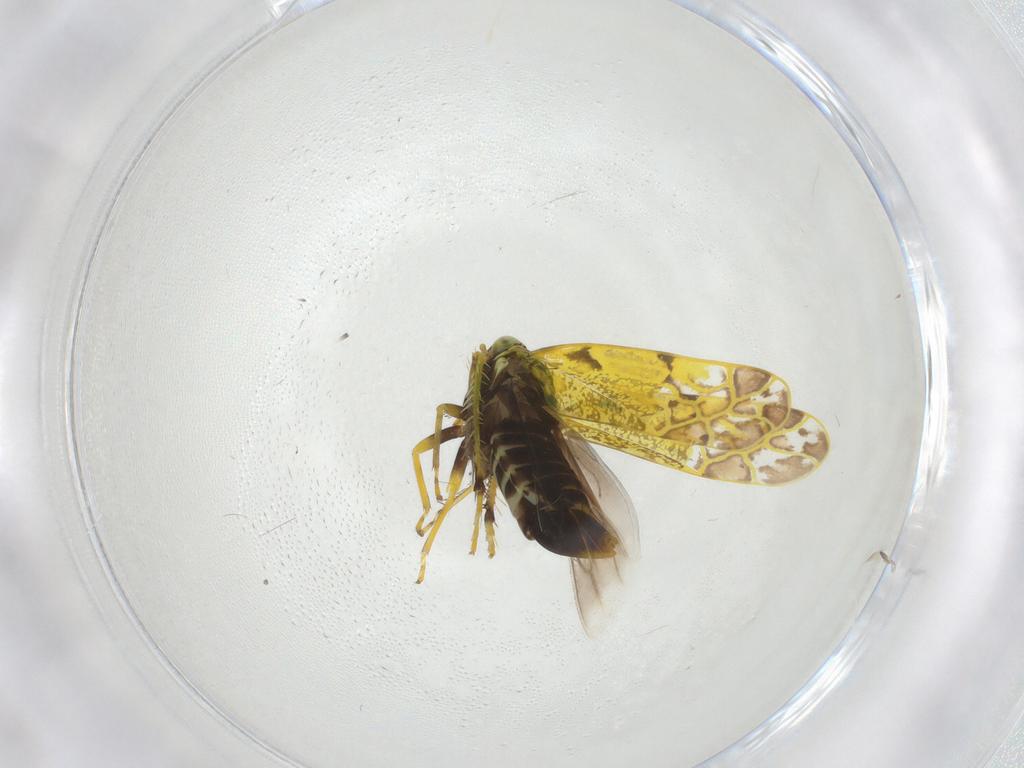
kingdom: Animalia
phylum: Arthropoda
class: Insecta
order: Hemiptera
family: Cicadellidae
